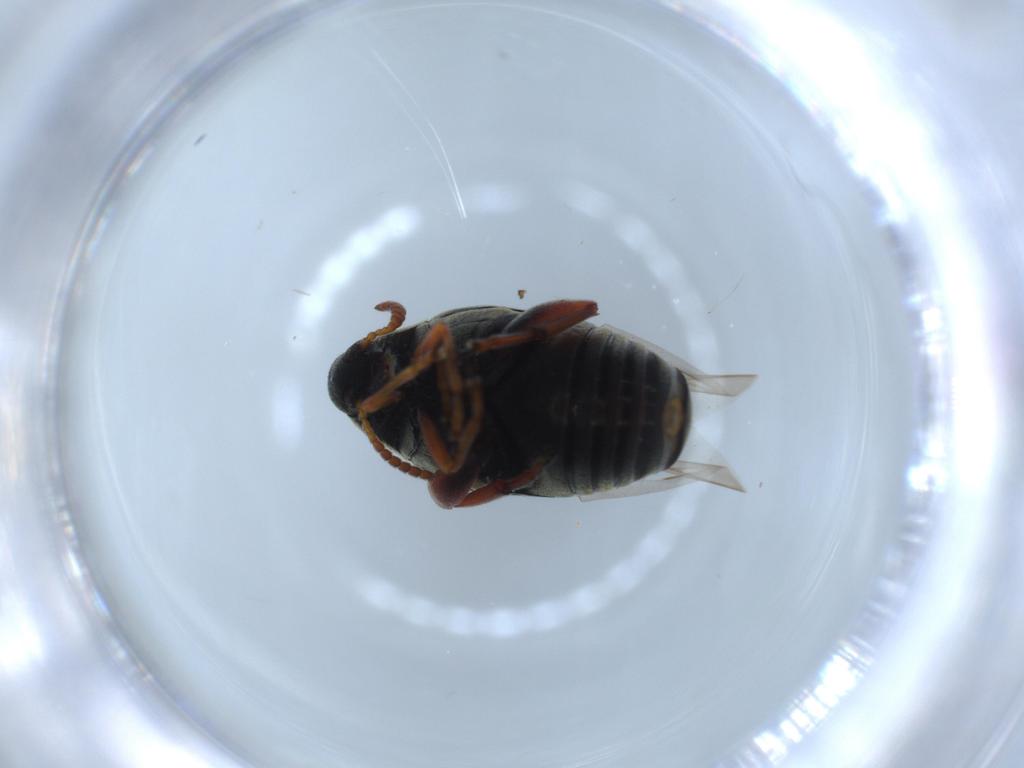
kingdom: Animalia
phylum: Arthropoda
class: Insecta
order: Coleoptera
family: Chrysomelidae
